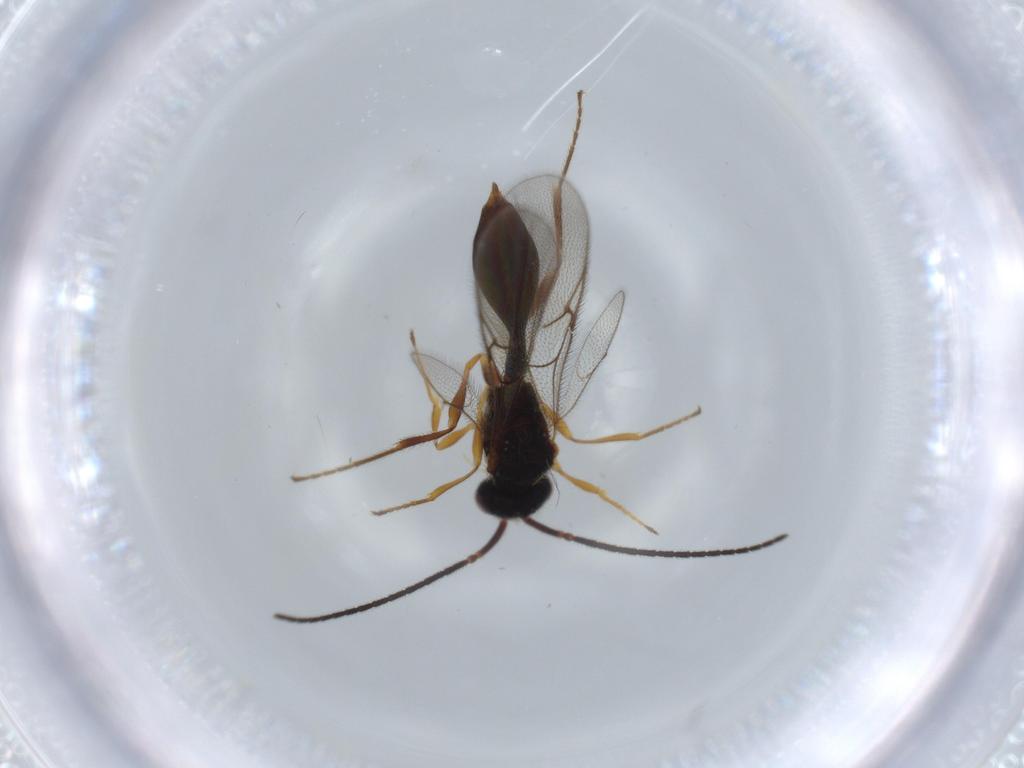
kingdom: Animalia
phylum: Arthropoda
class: Insecta
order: Hymenoptera
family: Formicidae
